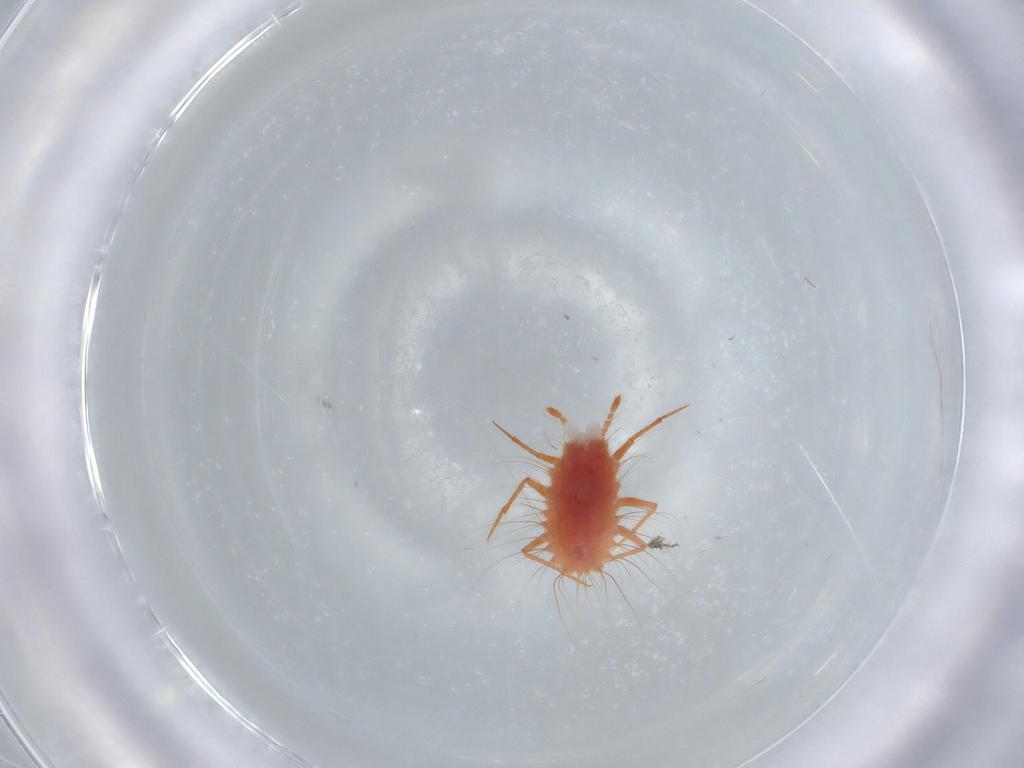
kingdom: Animalia
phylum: Arthropoda
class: Insecta
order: Hemiptera
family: Monophlebidae
